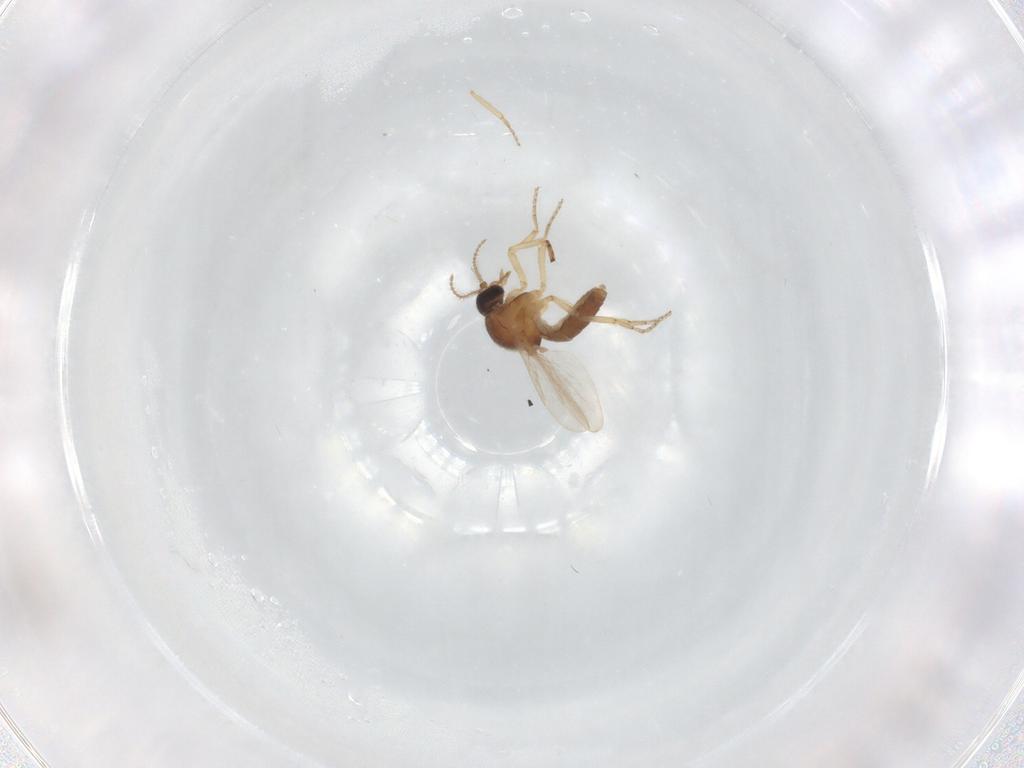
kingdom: Animalia
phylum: Arthropoda
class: Insecta
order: Diptera
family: Ceratopogonidae
